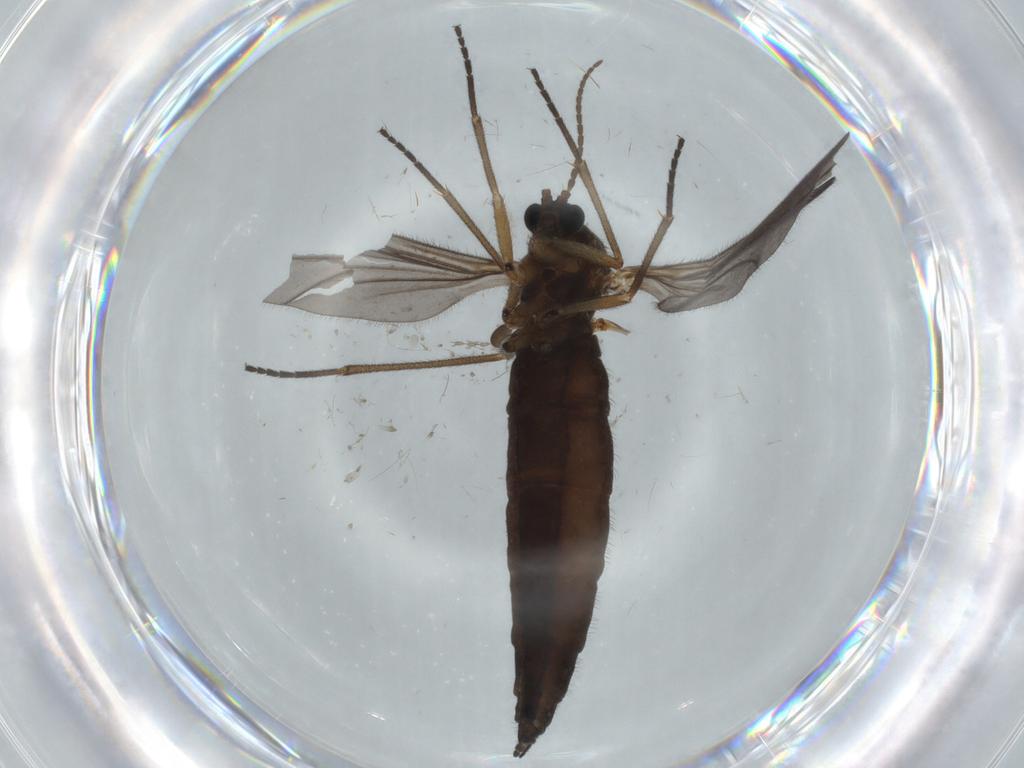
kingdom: Animalia
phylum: Arthropoda
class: Insecta
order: Diptera
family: Sciaridae
